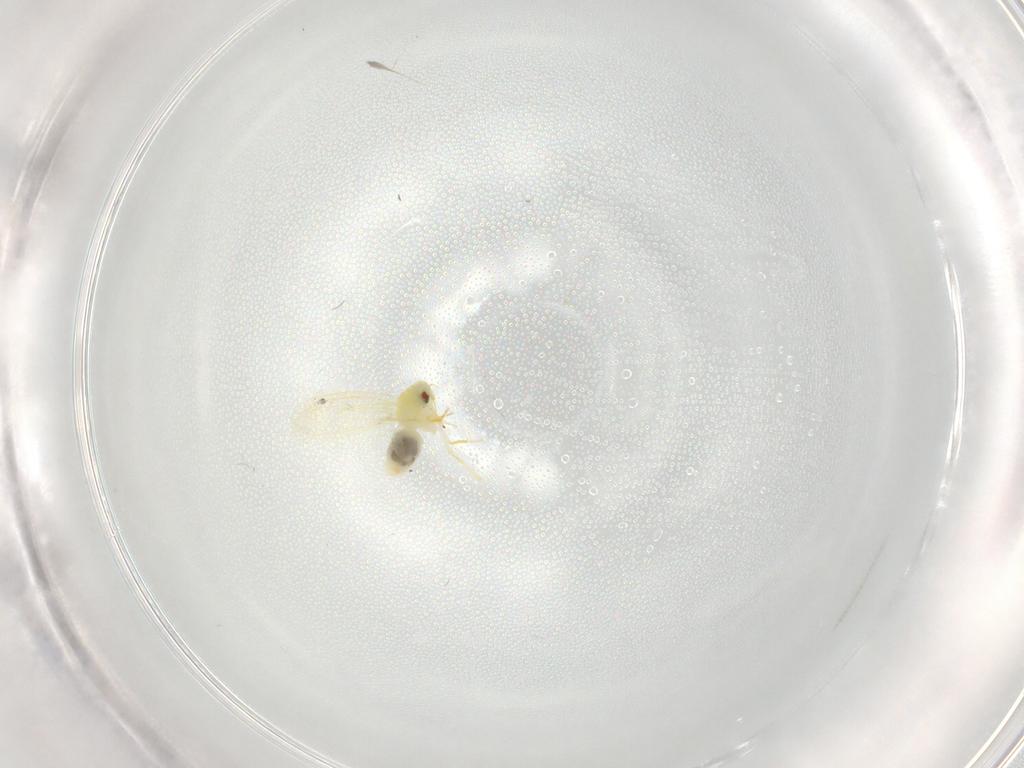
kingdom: Animalia
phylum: Arthropoda
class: Insecta
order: Hemiptera
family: Aleyrodidae
